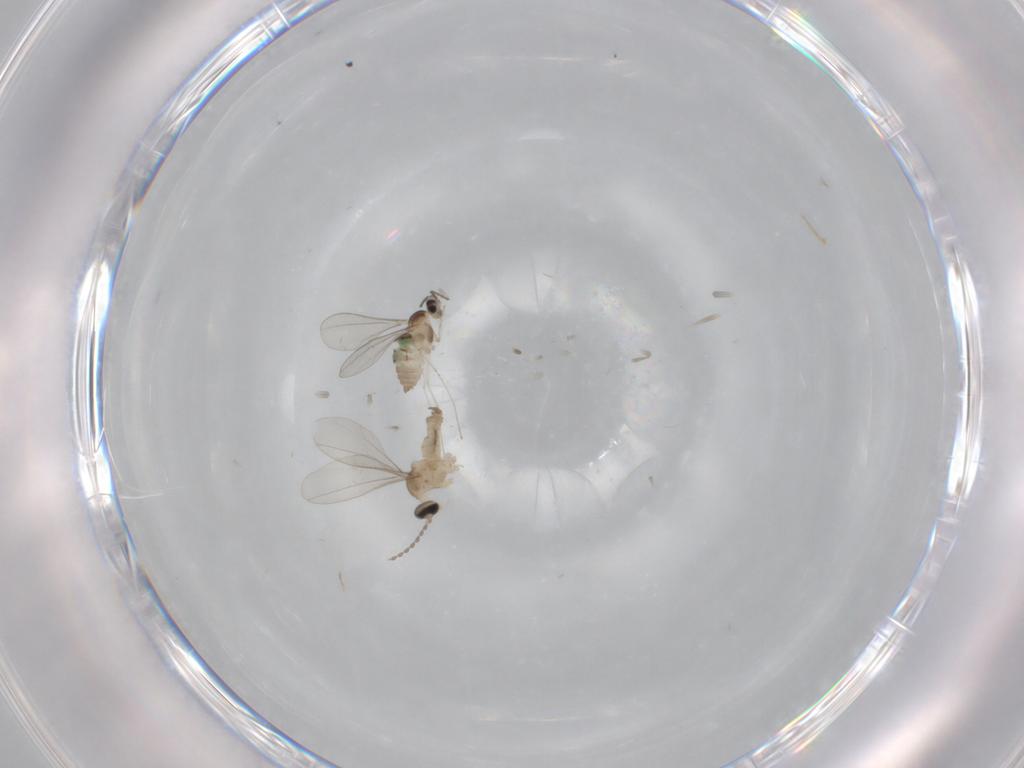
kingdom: Animalia
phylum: Arthropoda
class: Insecta
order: Diptera
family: Cecidomyiidae
